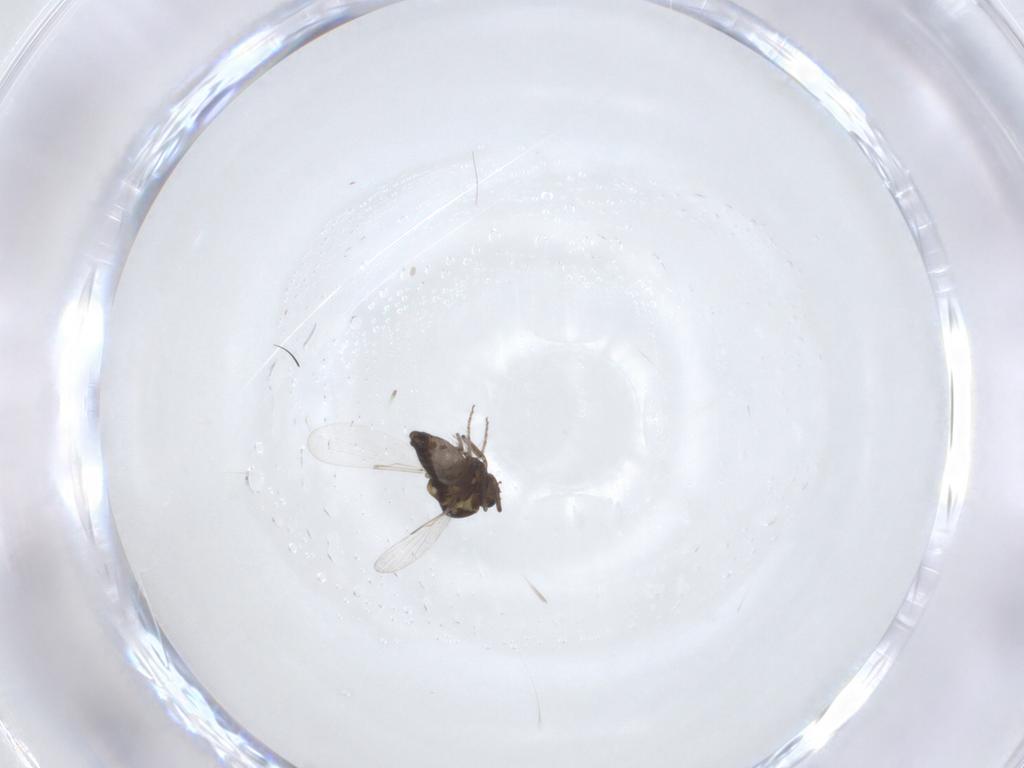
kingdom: Animalia
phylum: Arthropoda
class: Insecta
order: Diptera
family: Ceratopogonidae
